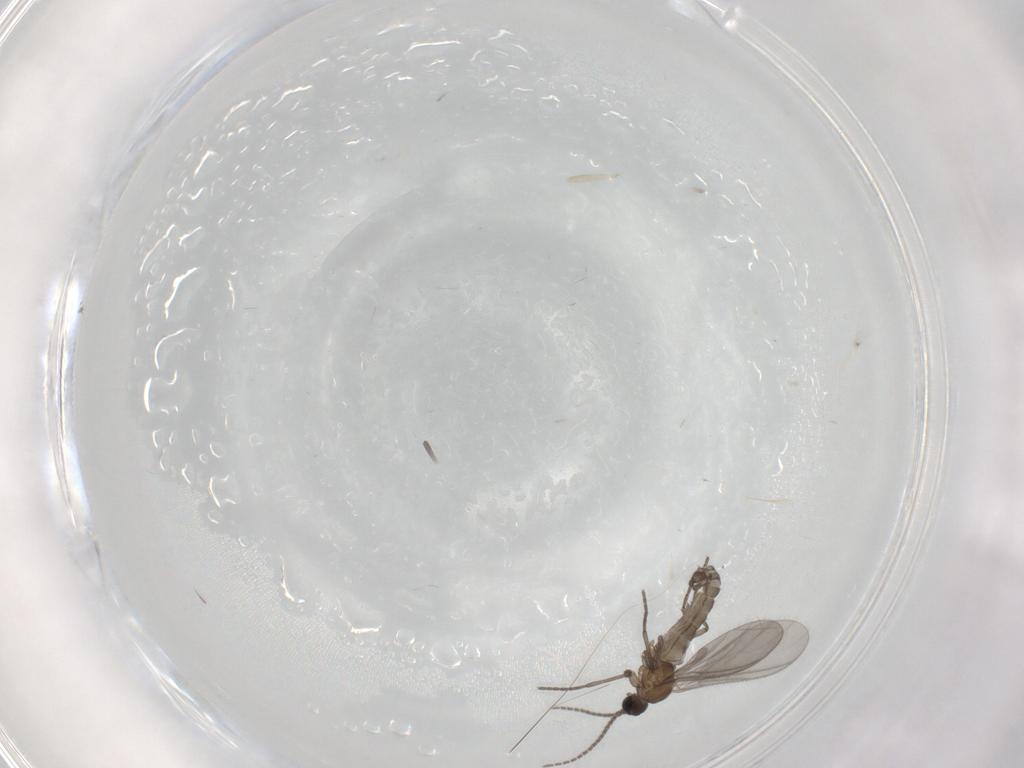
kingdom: Animalia
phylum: Arthropoda
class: Insecta
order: Diptera
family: Sciaridae
